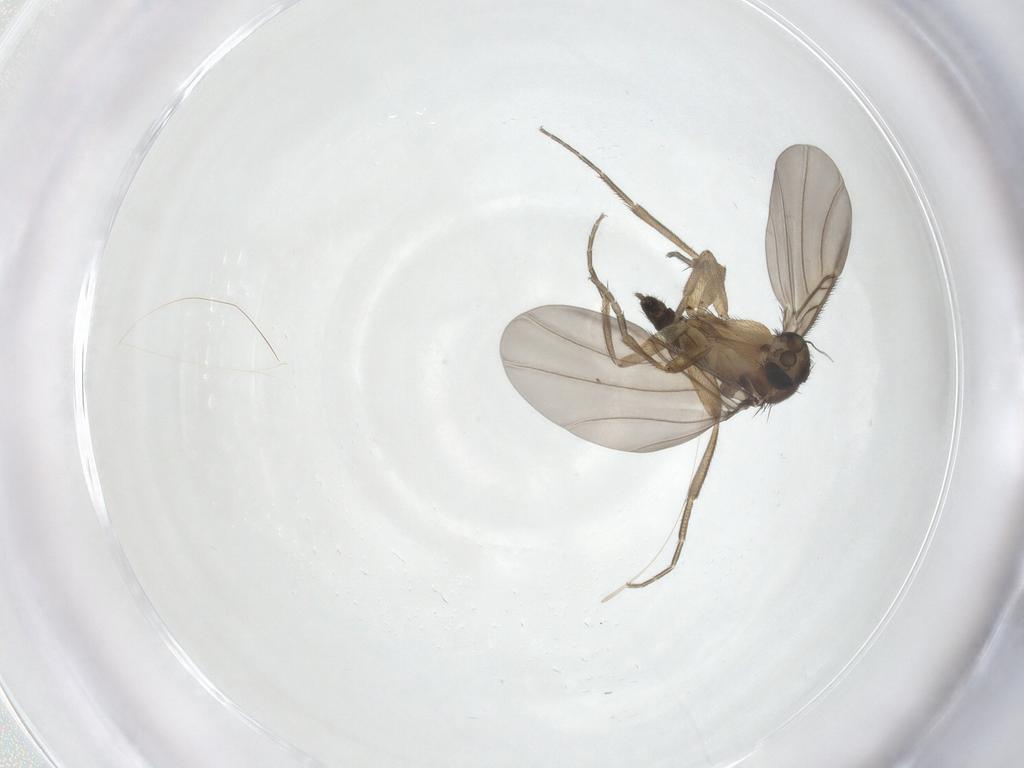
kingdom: Animalia
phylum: Arthropoda
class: Insecta
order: Diptera
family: Phoridae
